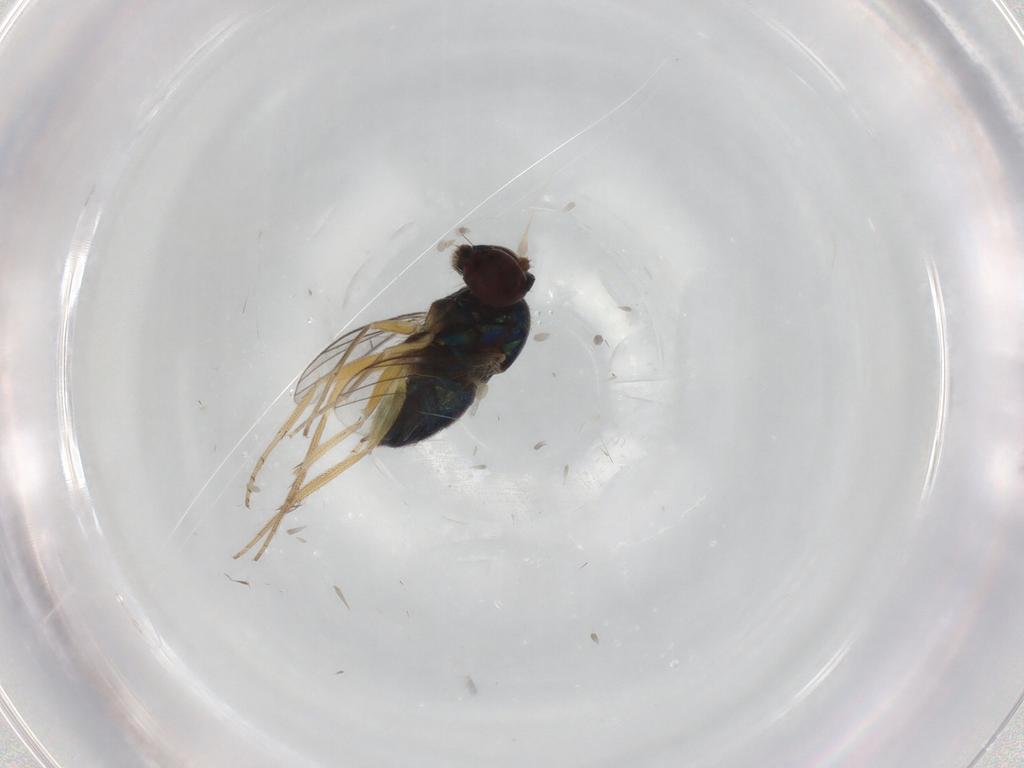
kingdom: Animalia
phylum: Arthropoda
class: Insecta
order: Diptera
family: Dolichopodidae
